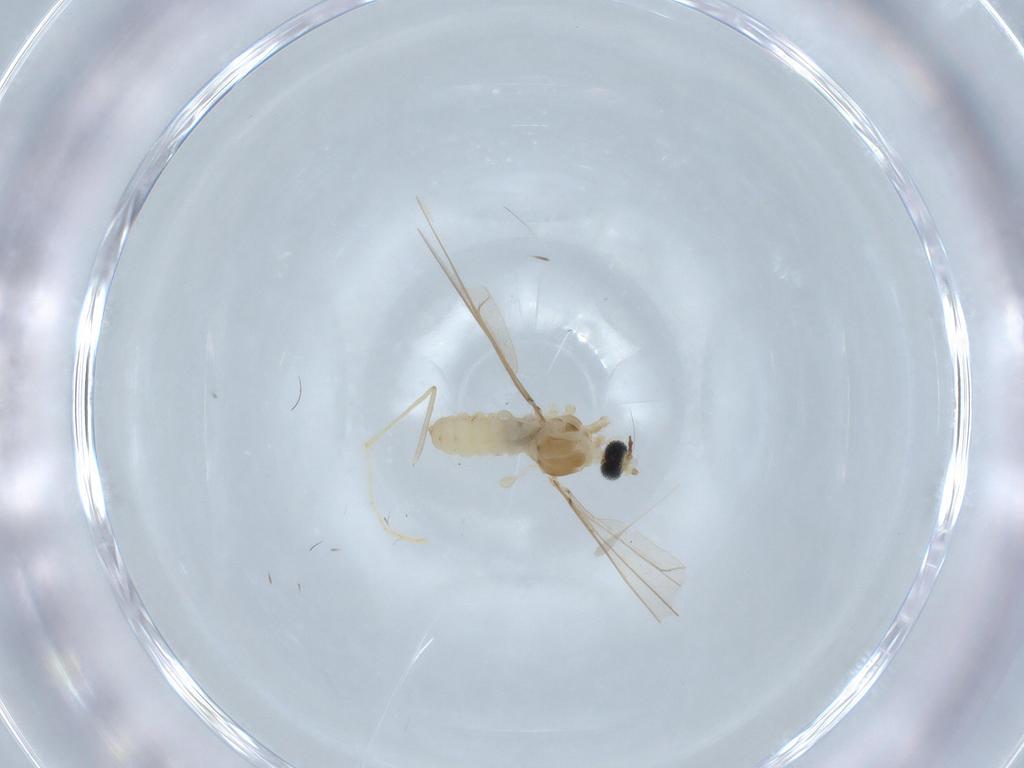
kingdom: Animalia
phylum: Arthropoda
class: Insecta
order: Diptera
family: Cecidomyiidae
